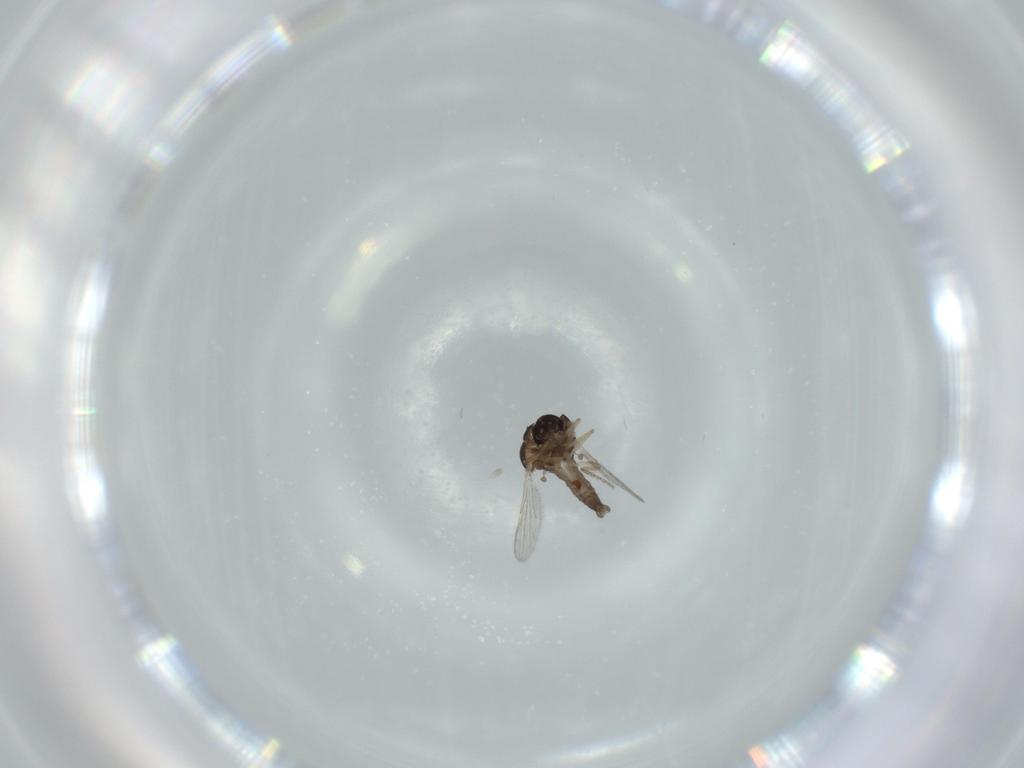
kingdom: Animalia
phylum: Arthropoda
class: Insecta
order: Diptera
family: Ceratopogonidae
